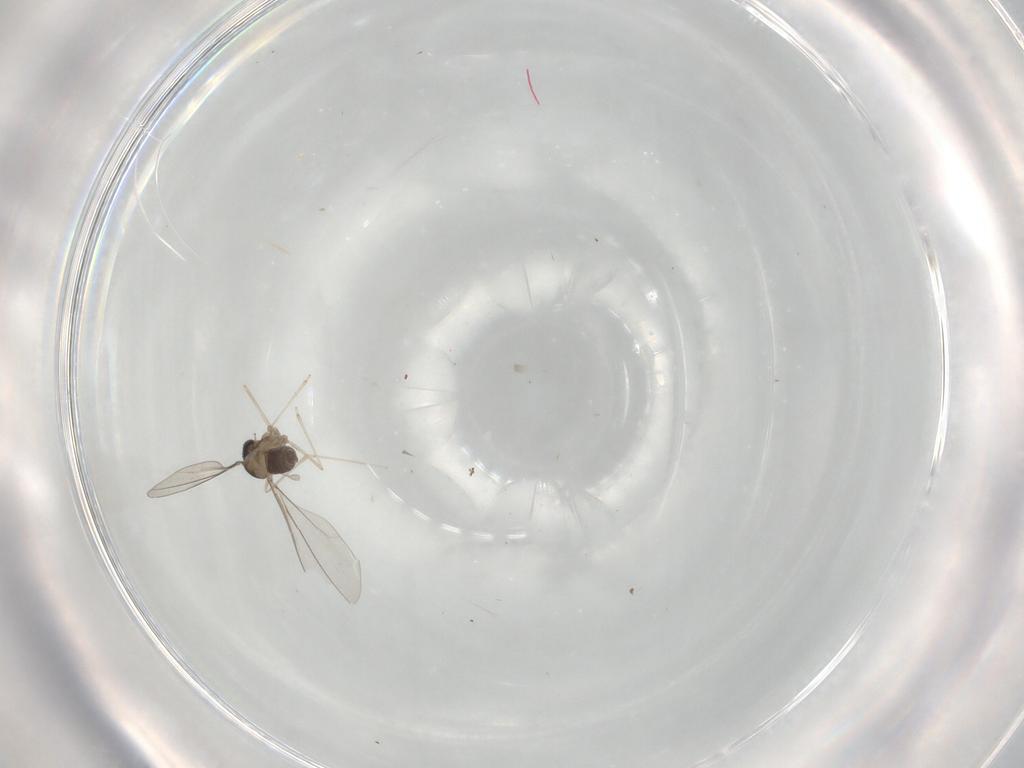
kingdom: Animalia
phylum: Arthropoda
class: Insecta
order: Diptera
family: Cecidomyiidae
